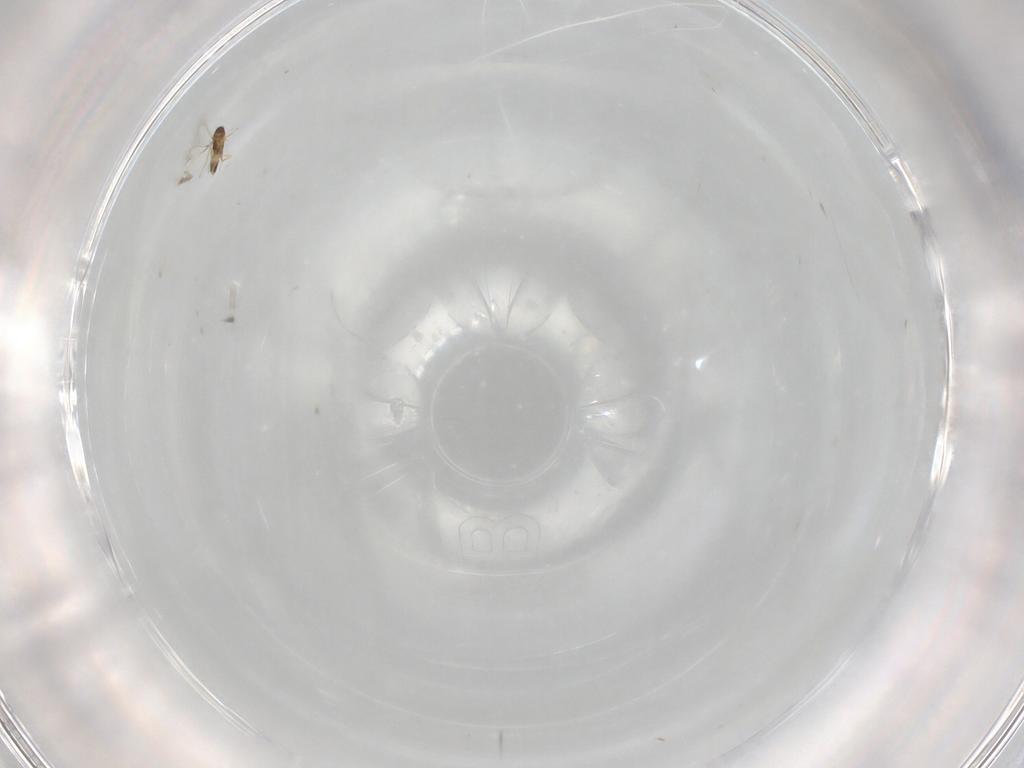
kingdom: Animalia
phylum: Arthropoda
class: Insecta
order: Hymenoptera
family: Mymaridae
